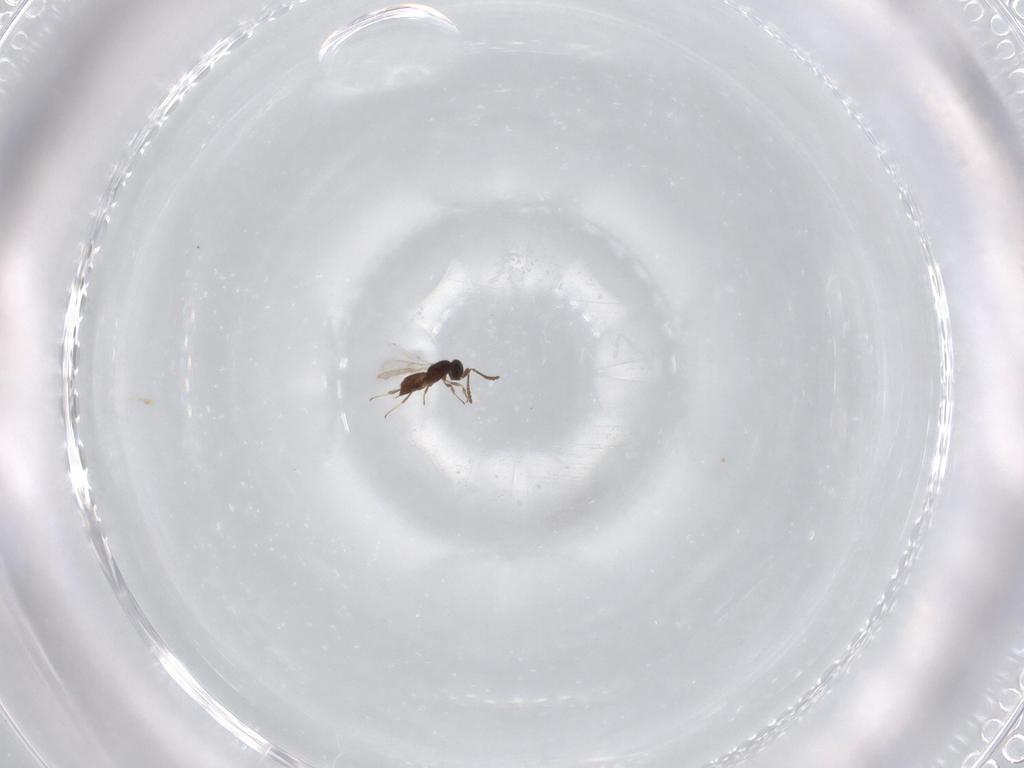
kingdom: Animalia
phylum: Arthropoda
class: Insecta
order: Hymenoptera
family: Scelionidae
